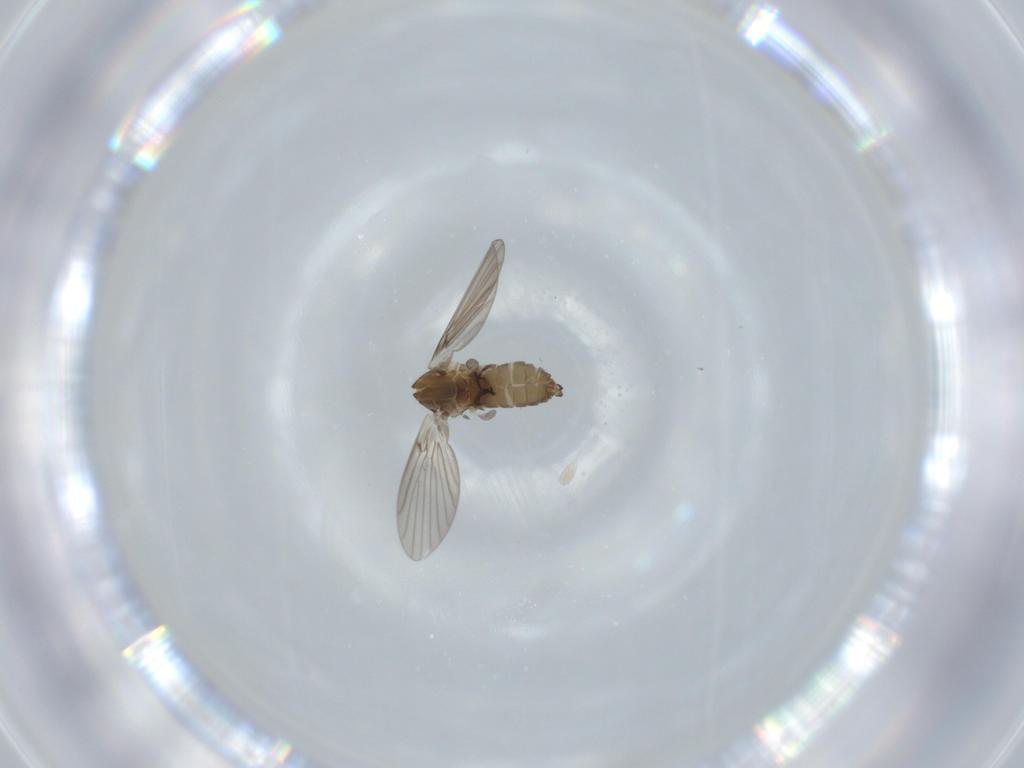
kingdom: Animalia
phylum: Arthropoda
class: Insecta
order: Diptera
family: Psychodidae
